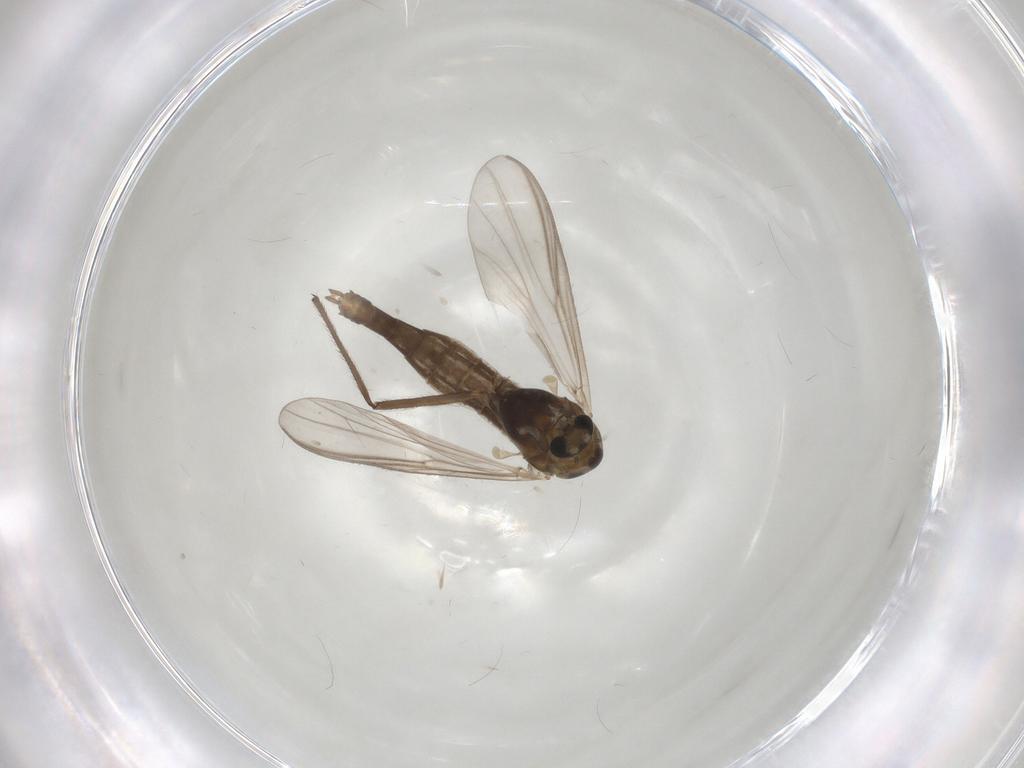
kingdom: Animalia
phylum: Arthropoda
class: Insecta
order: Diptera
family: Chironomidae
